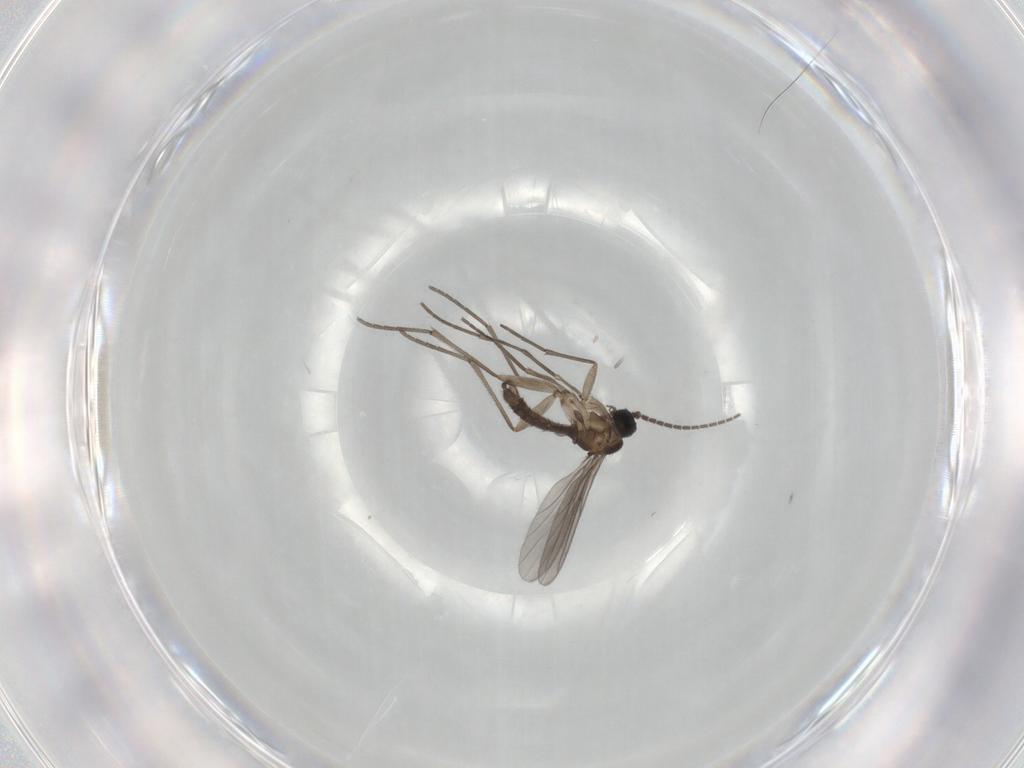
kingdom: Animalia
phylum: Arthropoda
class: Insecta
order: Diptera
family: Sciaridae
